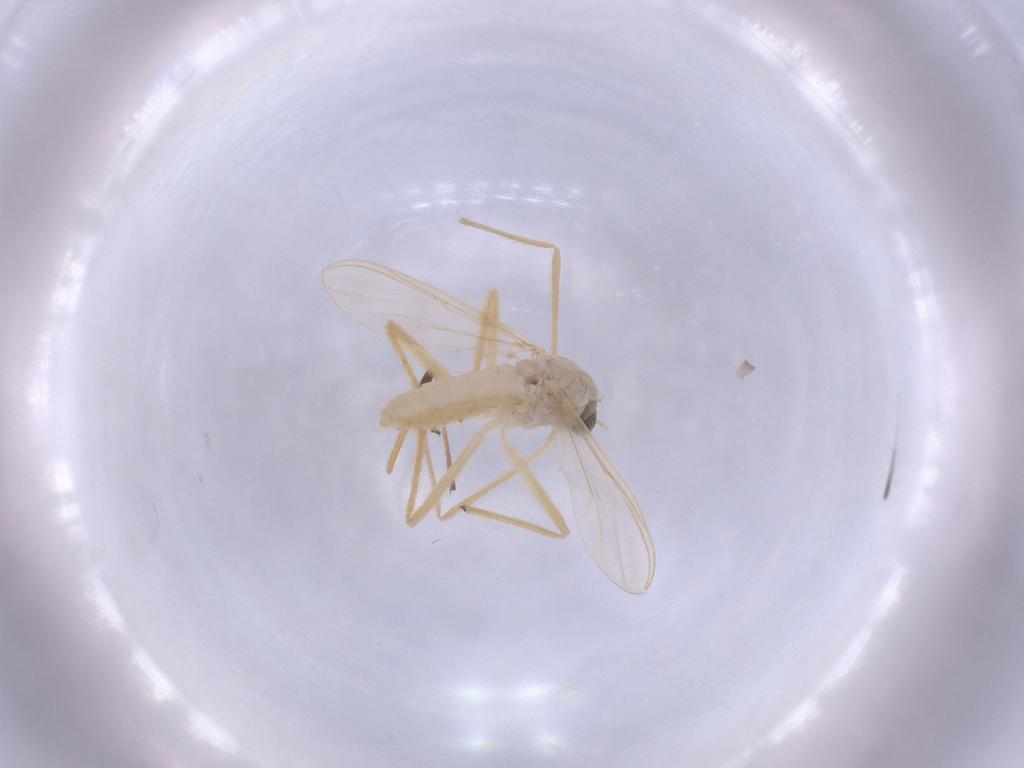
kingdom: Animalia
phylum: Arthropoda
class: Insecta
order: Diptera
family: Chironomidae
